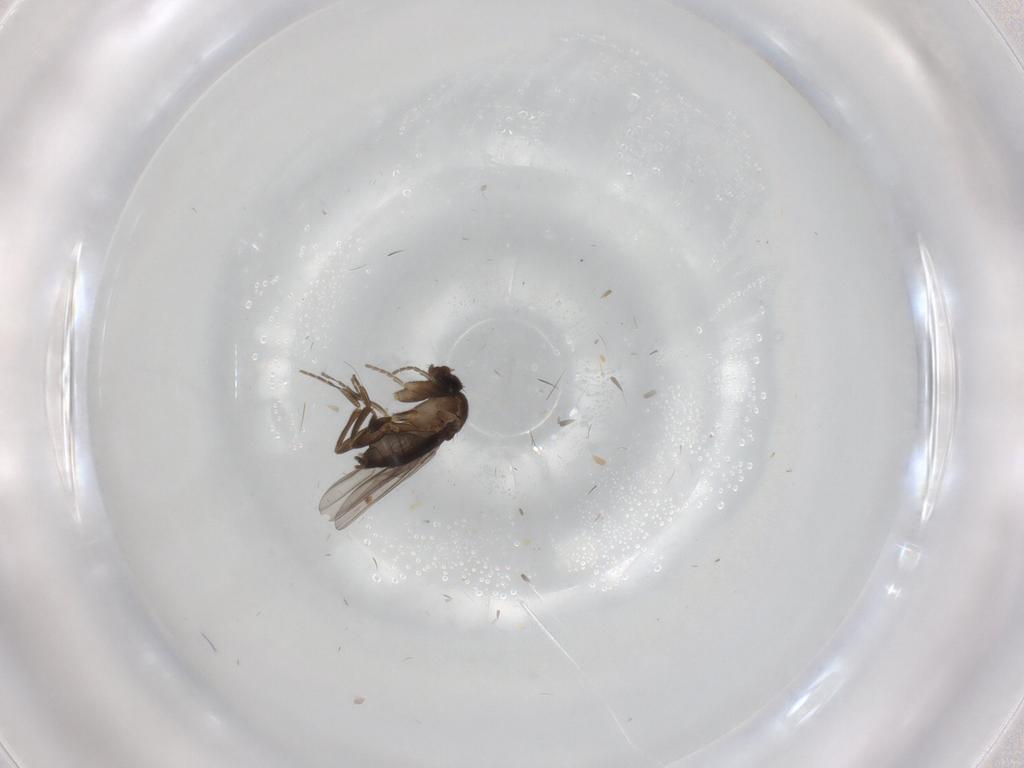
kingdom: Animalia
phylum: Arthropoda
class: Insecta
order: Diptera
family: Phoridae
